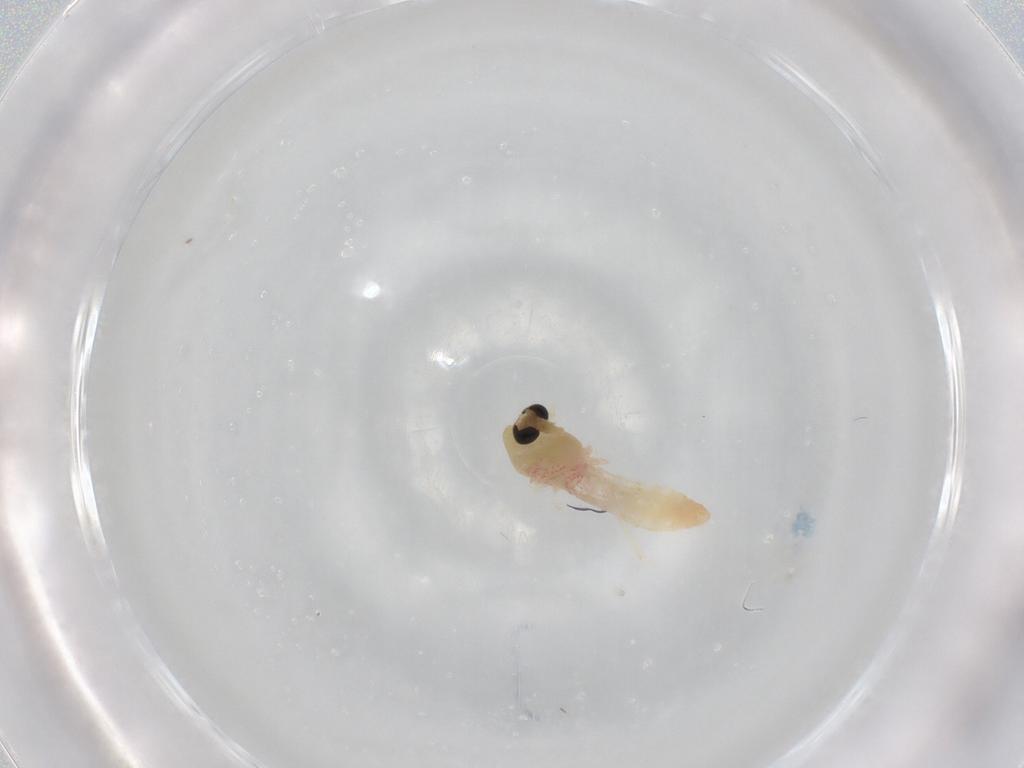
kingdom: Animalia
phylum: Arthropoda
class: Insecta
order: Diptera
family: Chironomidae
